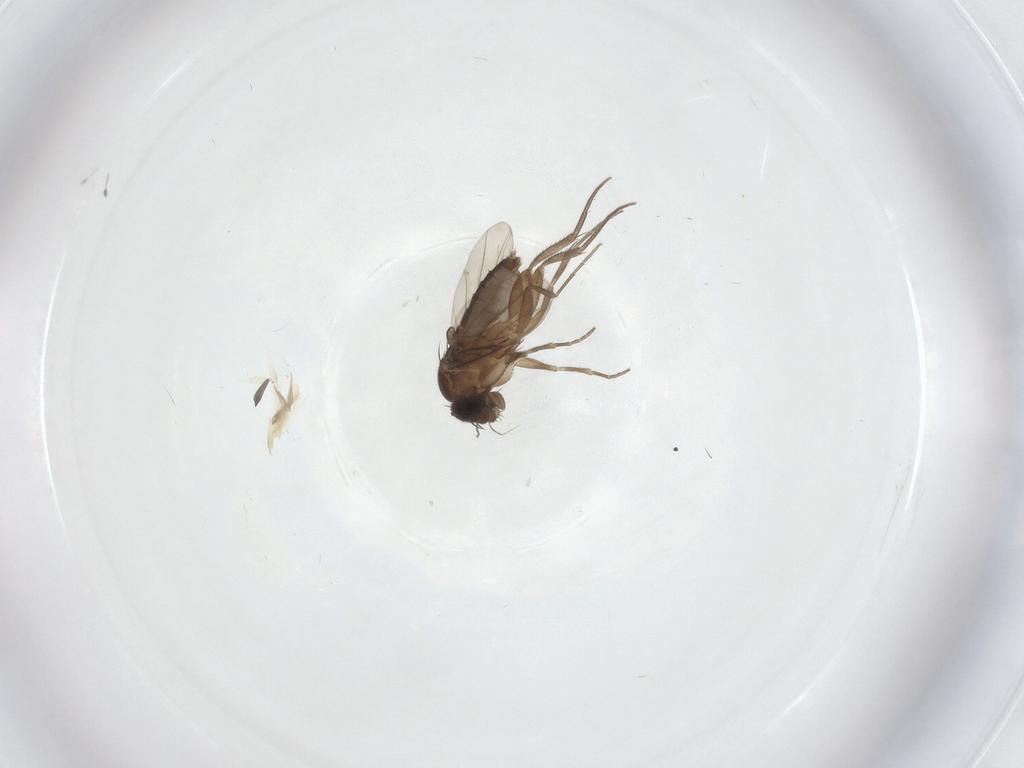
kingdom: Animalia
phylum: Arthropoda
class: Insecta
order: Diptera
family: Phoridae
